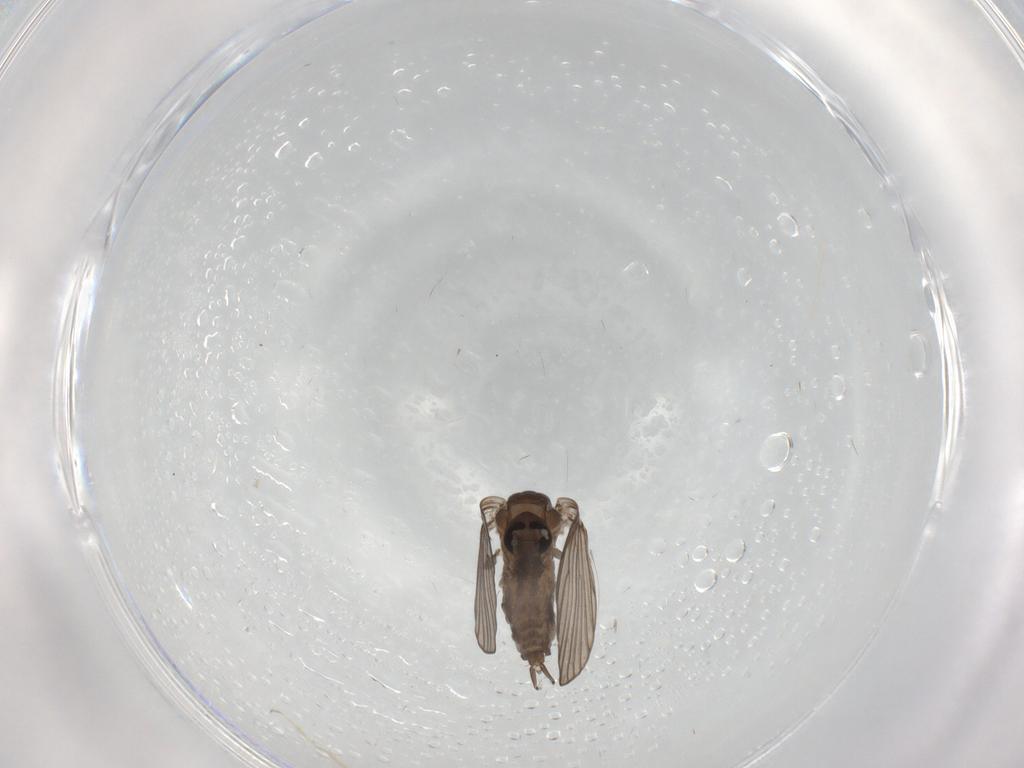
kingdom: Animalia
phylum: Arthropoda
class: Insecta
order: Diptera
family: Psychodidae
